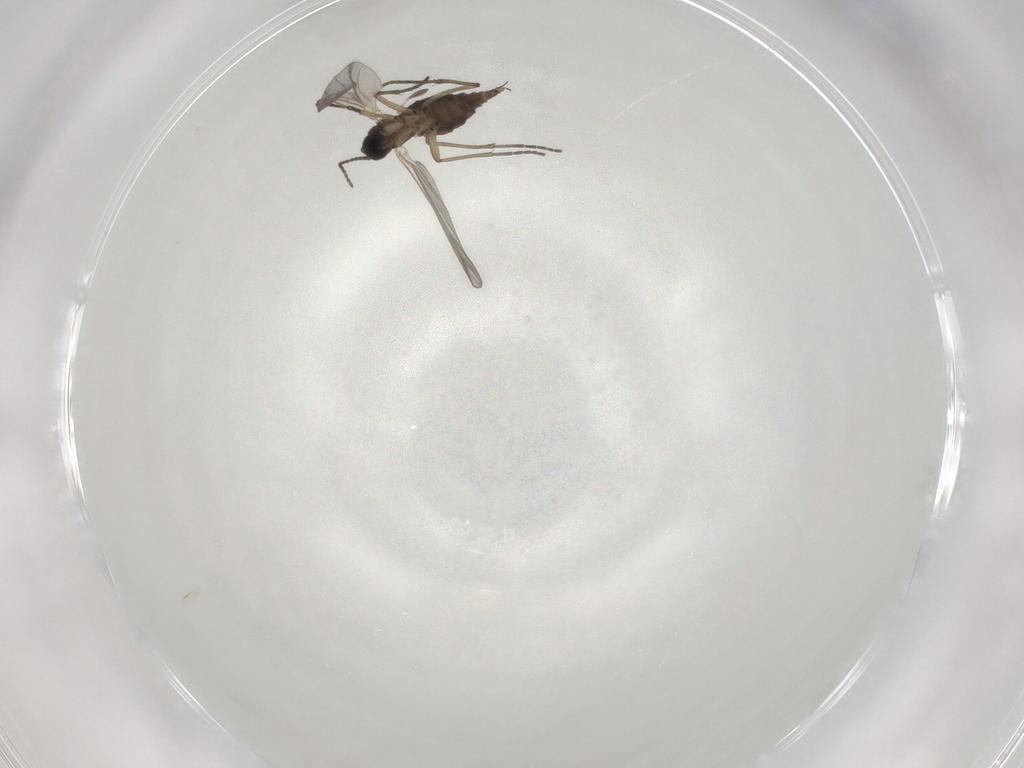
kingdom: Animalia
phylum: Arthropoda
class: Insecta
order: Diptera
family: Sciaridae
